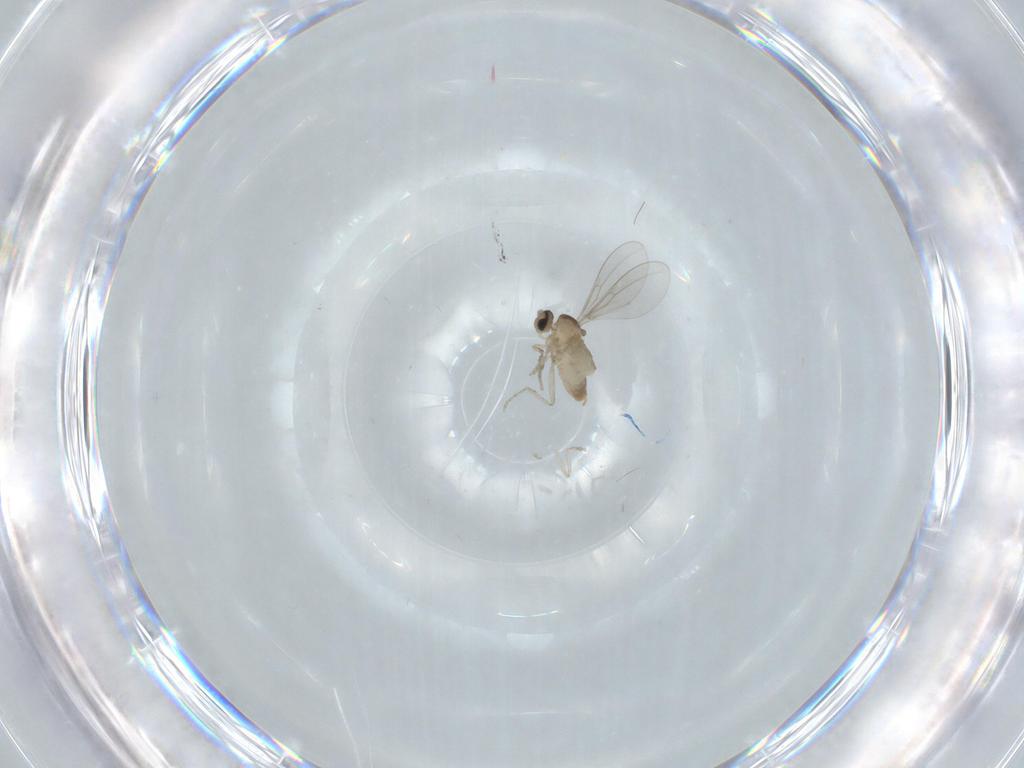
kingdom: Animalia
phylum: Arthropoda
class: Insecta
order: Diptera
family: Cecidomyiidae
